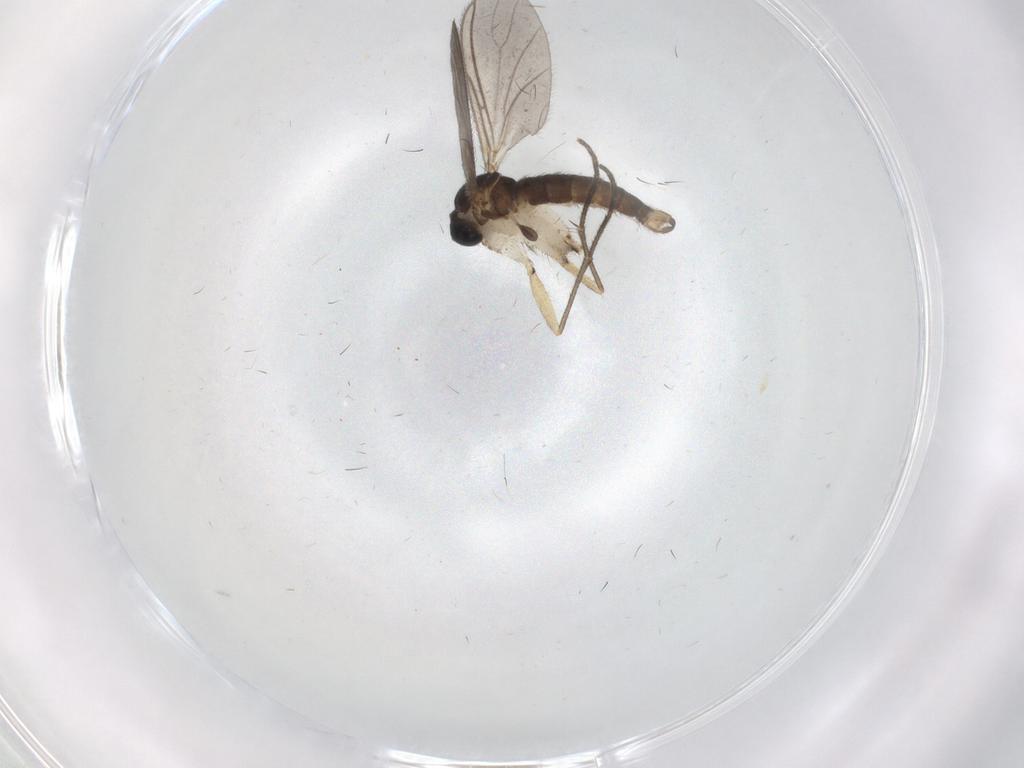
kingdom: Animalia
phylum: Arthropoda
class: Insecta
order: Diptera
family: Sciaridae
